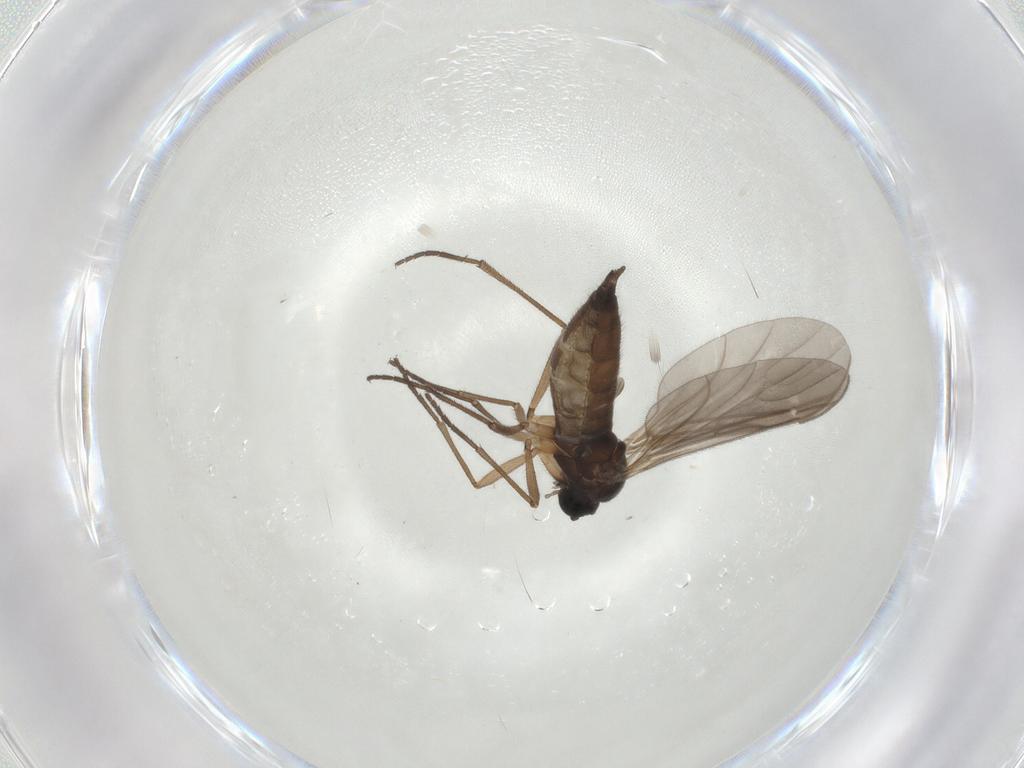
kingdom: Animalia
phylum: Arthropoda
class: Insecta
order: Diptera
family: Sciaridae
